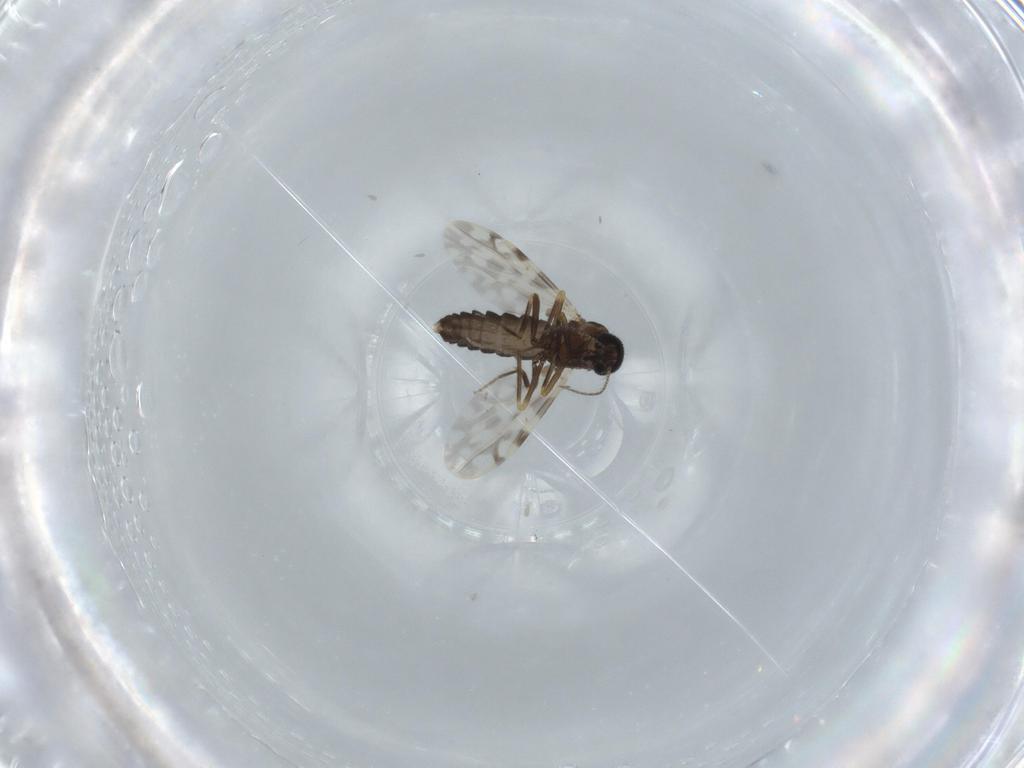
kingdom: Animalia
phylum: Arthropoda
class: Insecta
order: Diptera
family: Ceratopogonidae
